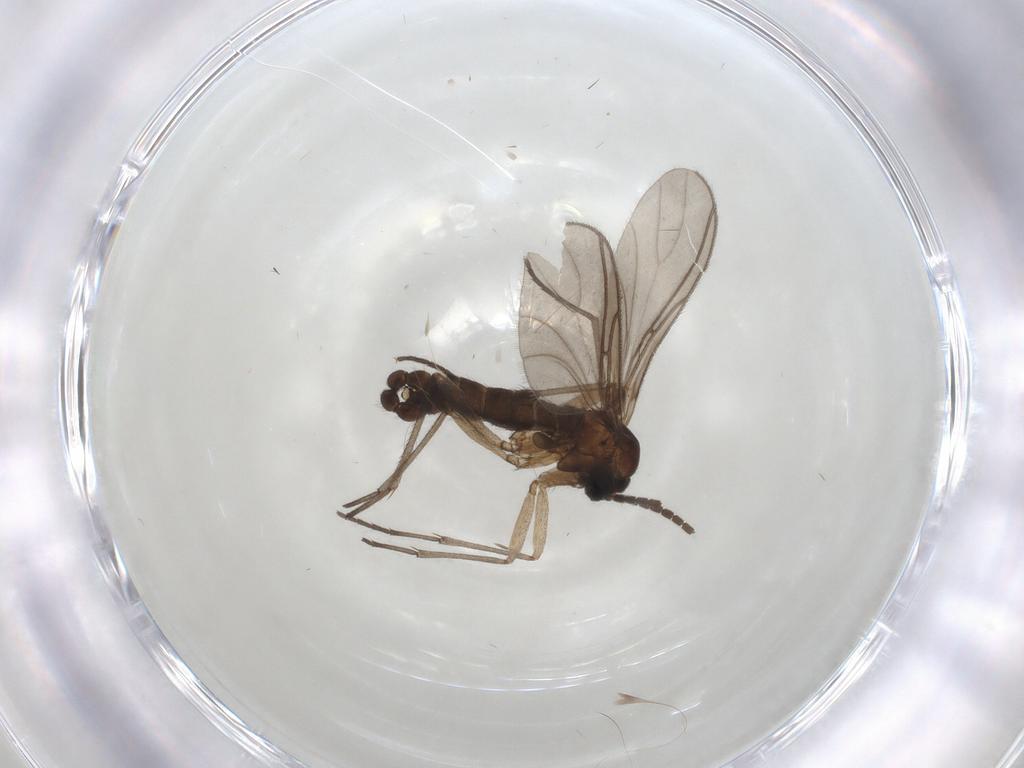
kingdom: Animalia
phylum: Arthropoda
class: Insecta
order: Diptera
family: Sciaridae
